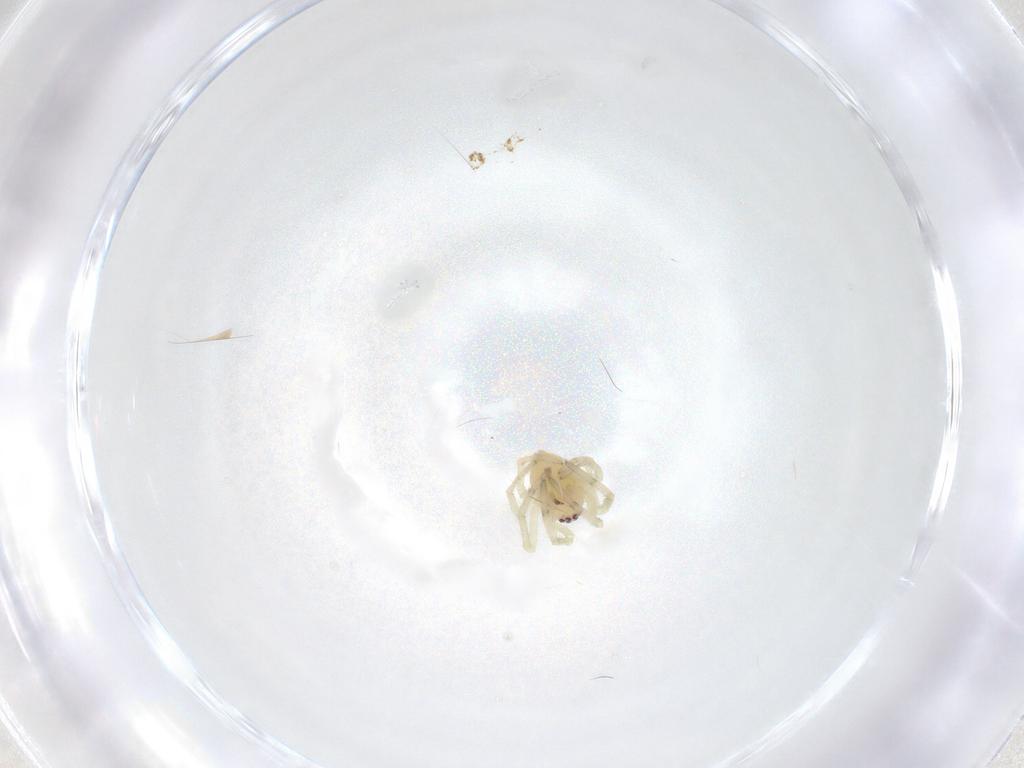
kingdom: Animalia
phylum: Arthropoda
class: Arachnida
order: Araneae
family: Tetragnathidae
